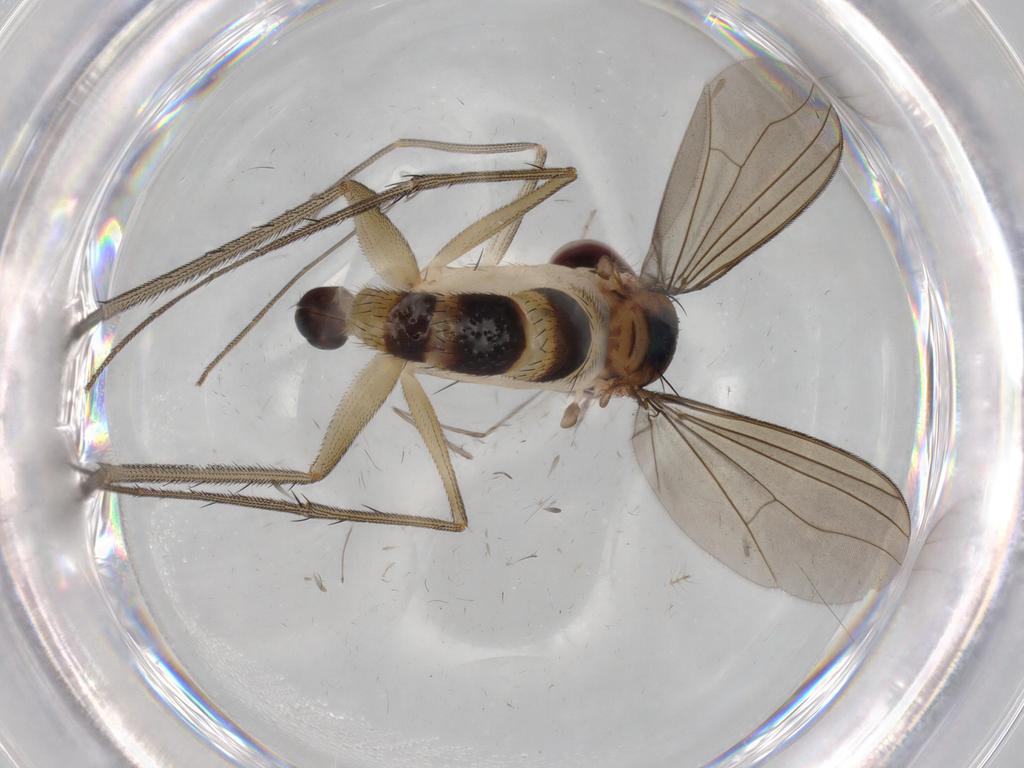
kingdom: Animalia
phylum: Arthropoda
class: Insecta
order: Diptera
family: Cecidomyiidae
